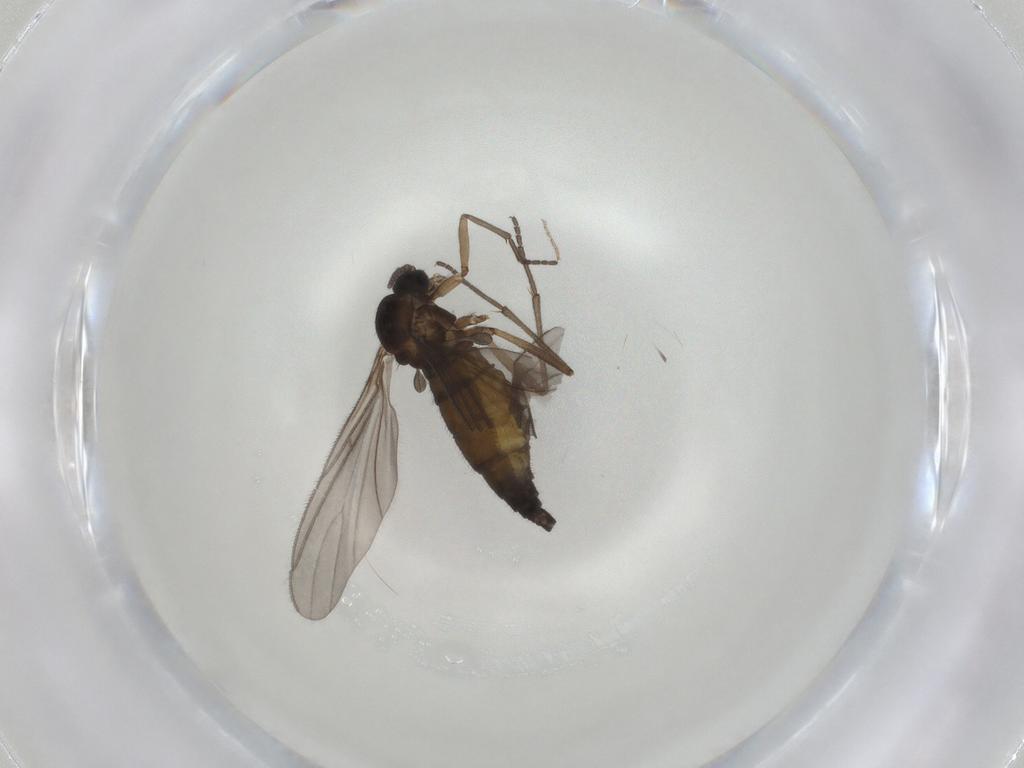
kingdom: Animalia
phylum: Arthropoda
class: Insecta
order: Diptera
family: Sciaridae
